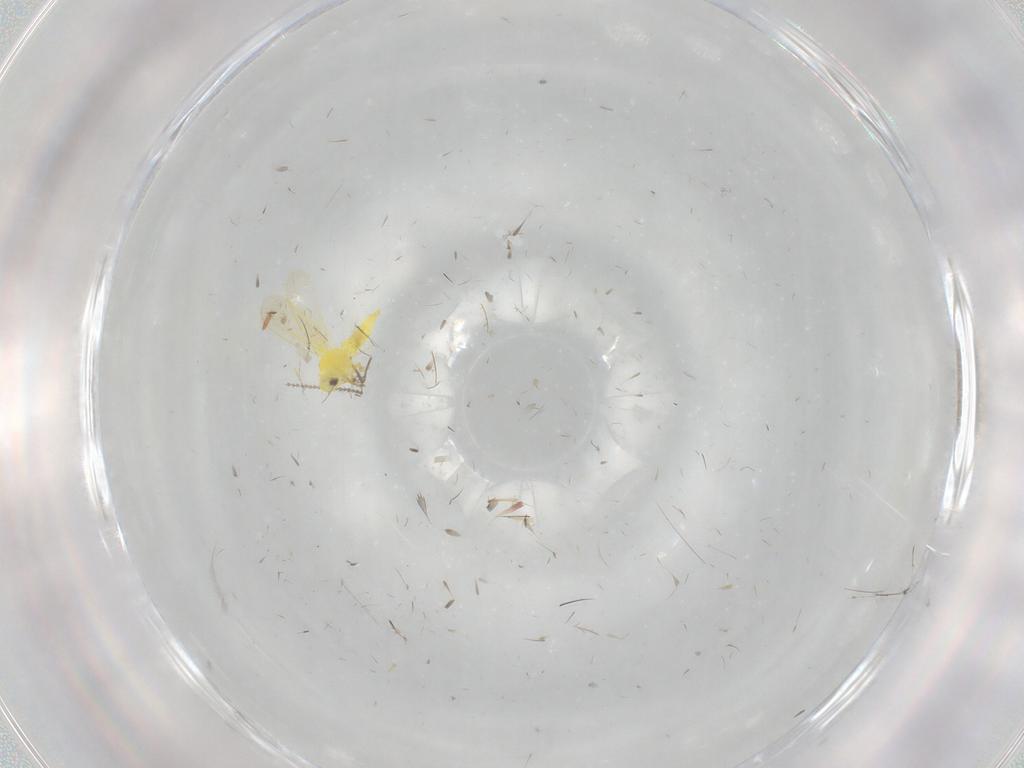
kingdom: Animalia
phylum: Arthropoda
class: Insecta
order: Hemiptera
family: Aleyrodidae
